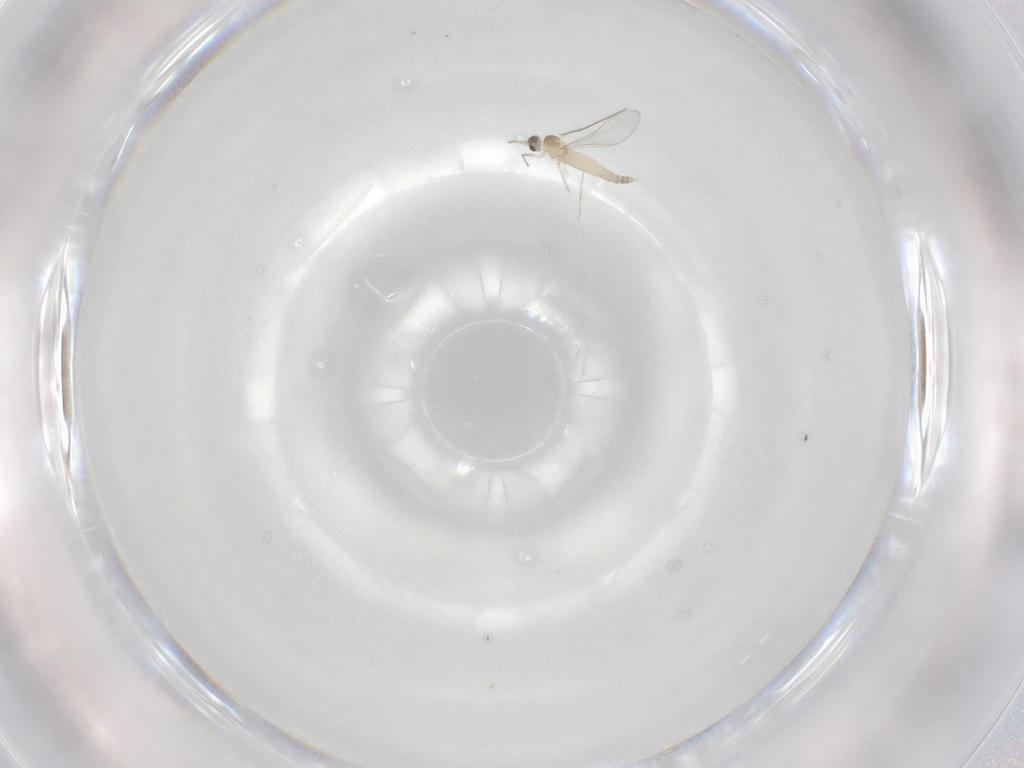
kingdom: Animalia
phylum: Arthropoda
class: Insecta
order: Diptera
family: Cecidomyiidae
